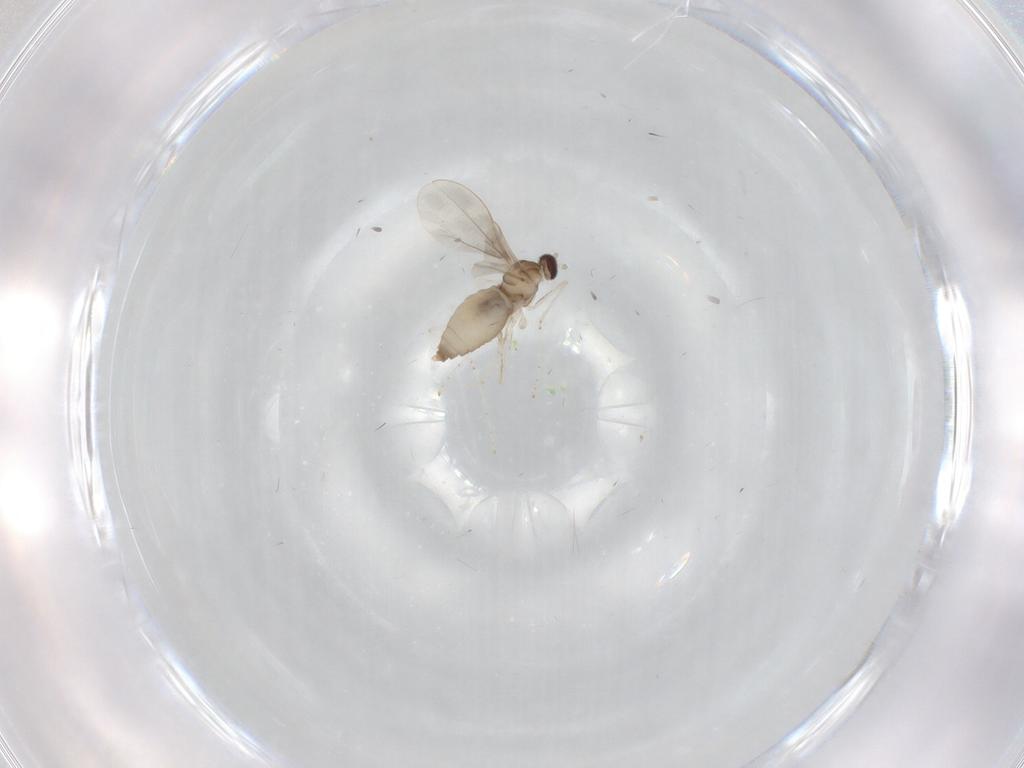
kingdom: Animalia
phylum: Arthropoda
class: Insecta
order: Diptera
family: Cecidomyiidae
